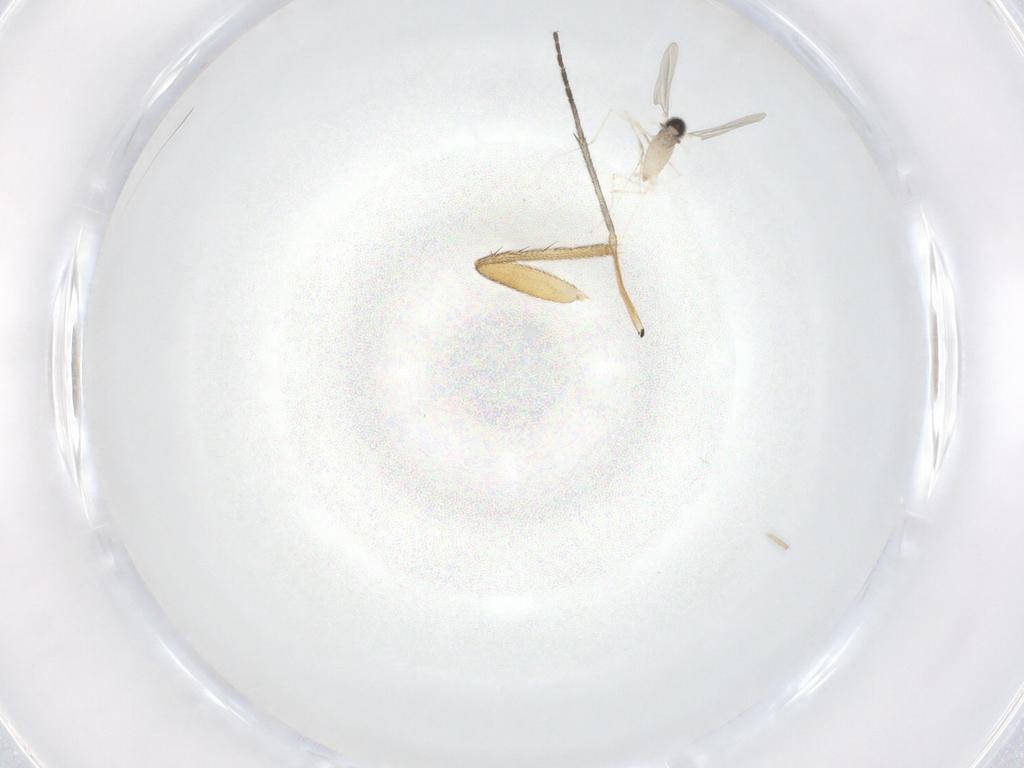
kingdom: Animalia
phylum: Arthropoda
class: Insecta
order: Diptera
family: Dolichopodidae
